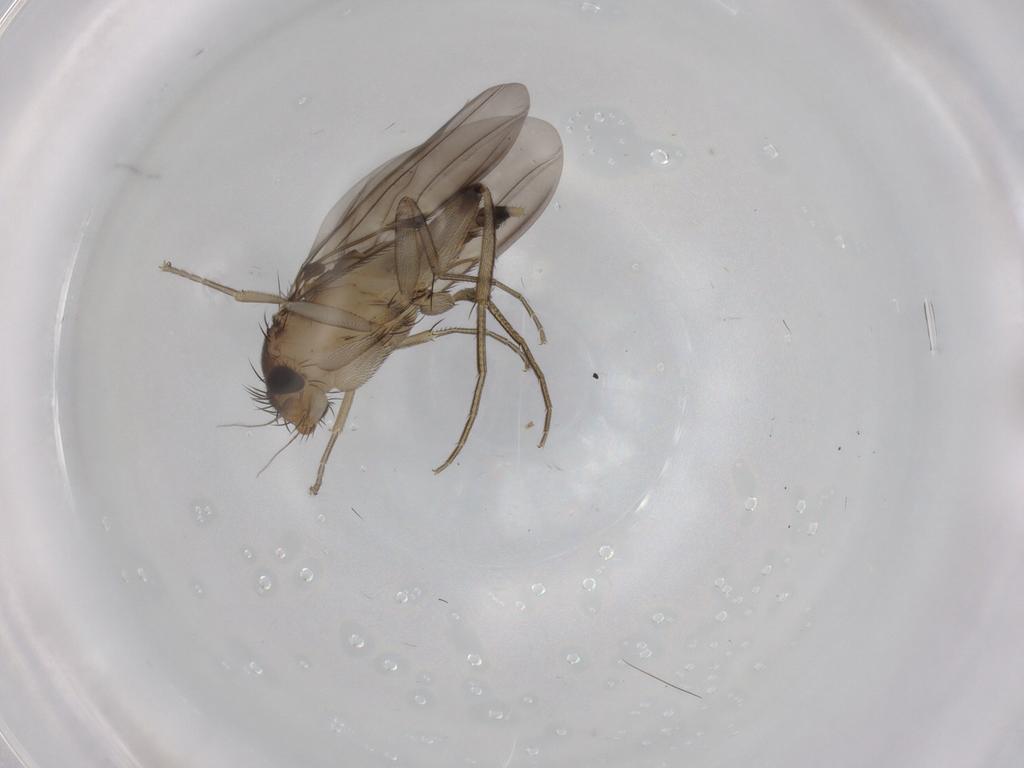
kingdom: Animalia
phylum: Arthropoda
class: Insecta
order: Diptera
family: Phoridae
